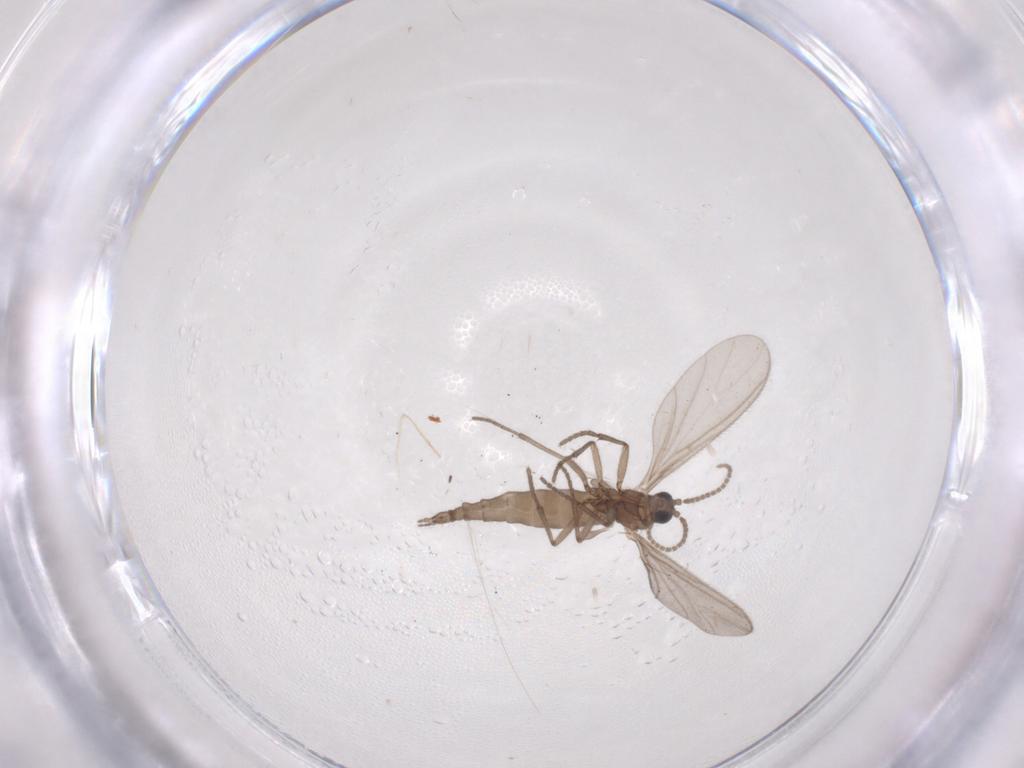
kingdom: Animalia
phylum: Arthropoda
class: Insecta
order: Diptera
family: Sciaridae
